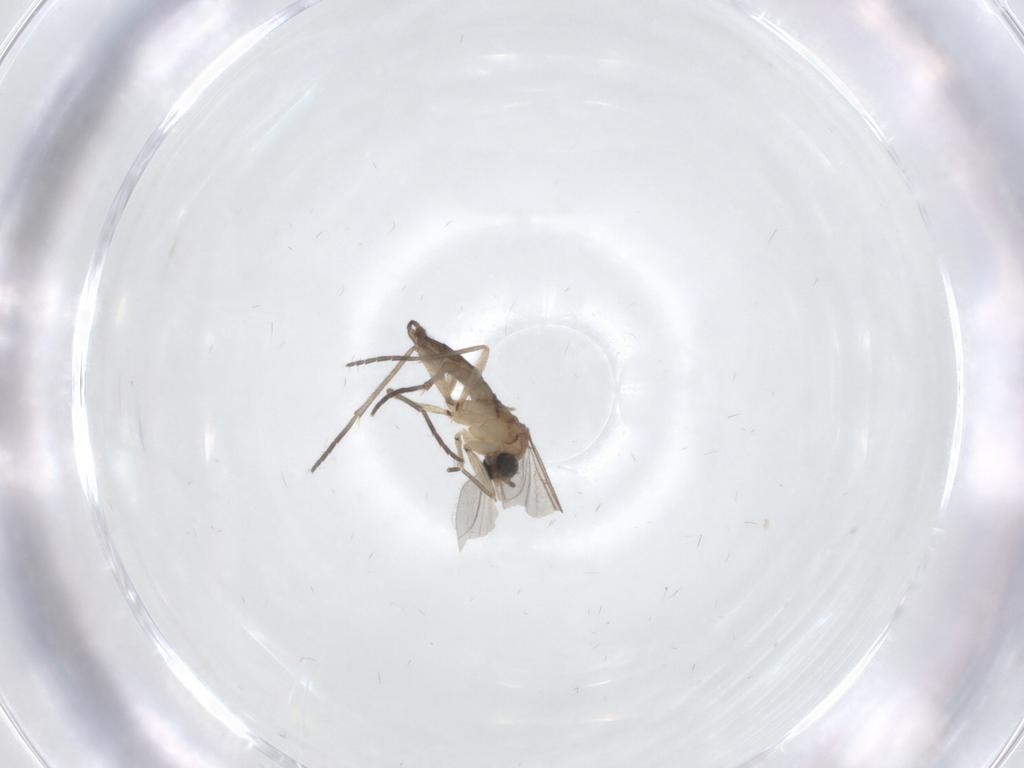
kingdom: Animalia
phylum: Arthropoda
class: Insecta
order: Diptera
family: Sciaridae
